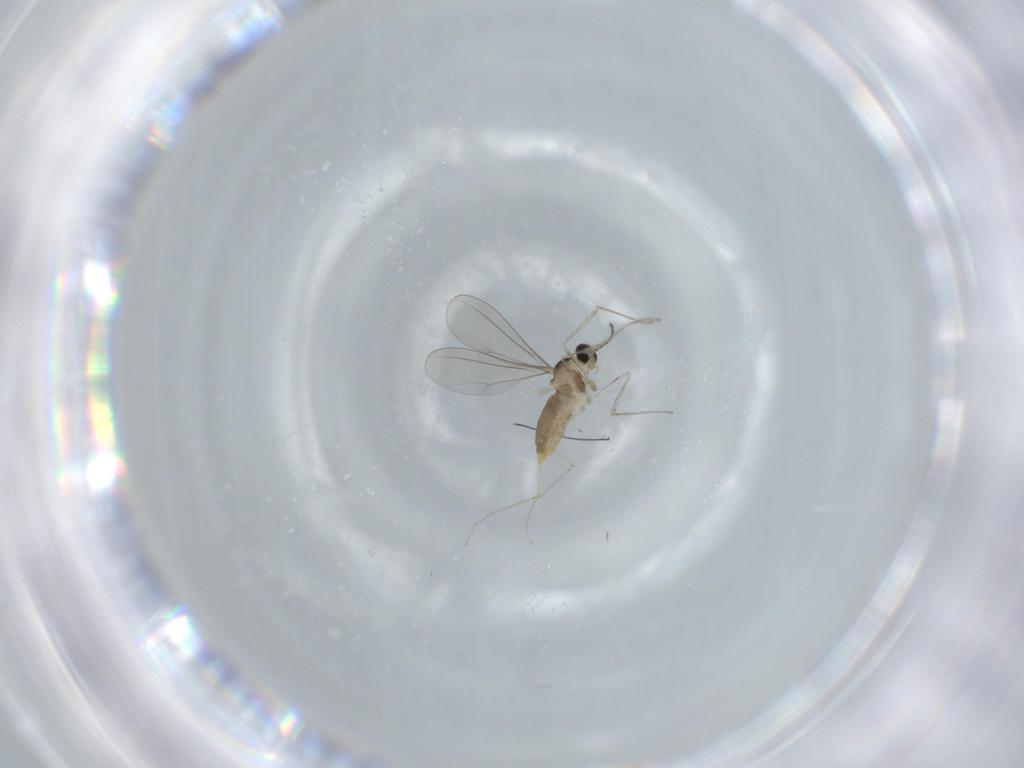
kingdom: Animalia
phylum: Arthropoda
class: Insecta
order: Diptera
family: Cecidomyiidae
